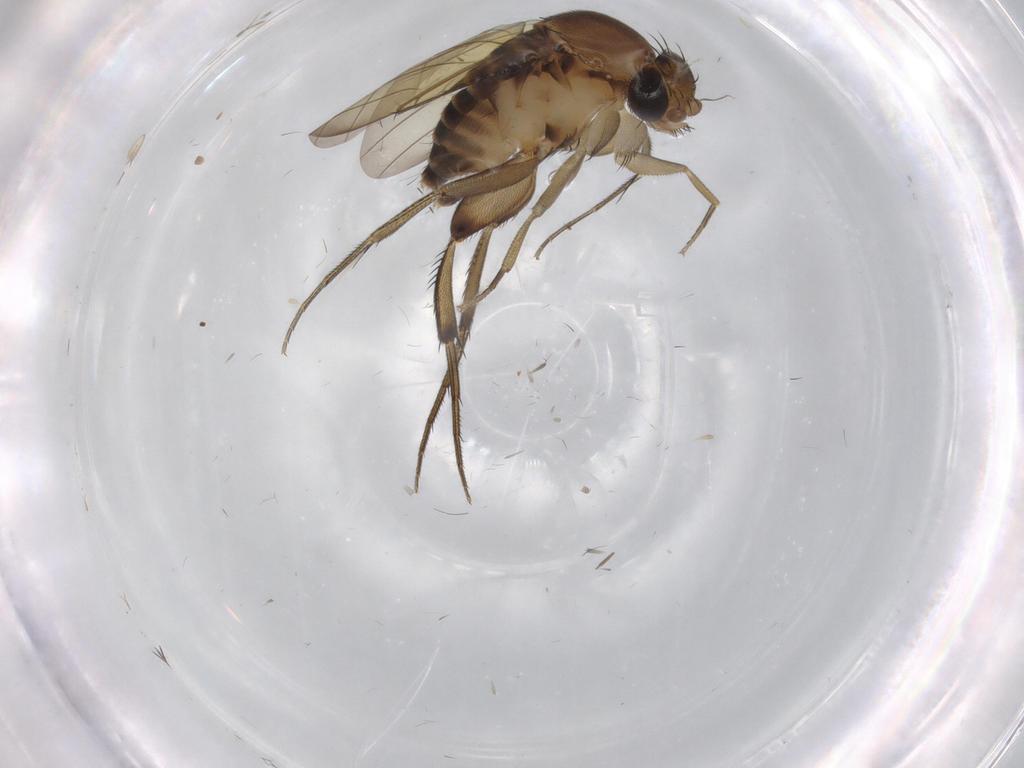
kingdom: Animalia
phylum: Arthropoda
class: Insecta
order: Diptera
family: Phoridae
